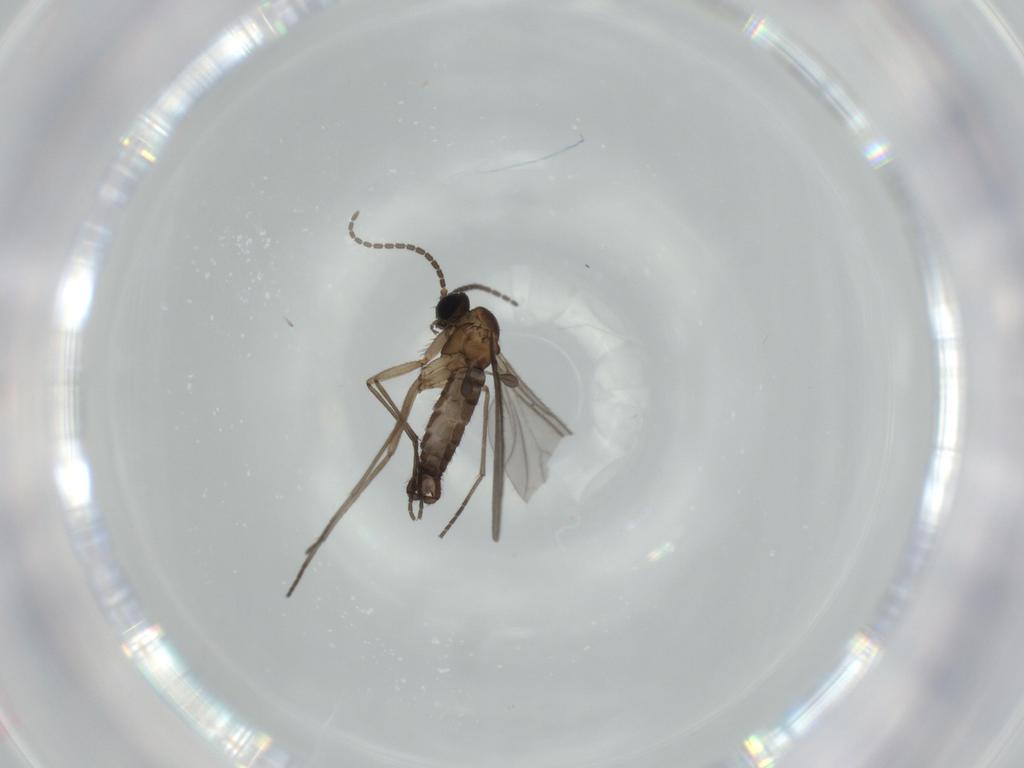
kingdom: Animalia
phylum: Arthropoda
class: Insecta
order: Diptera
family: Sciaridae
